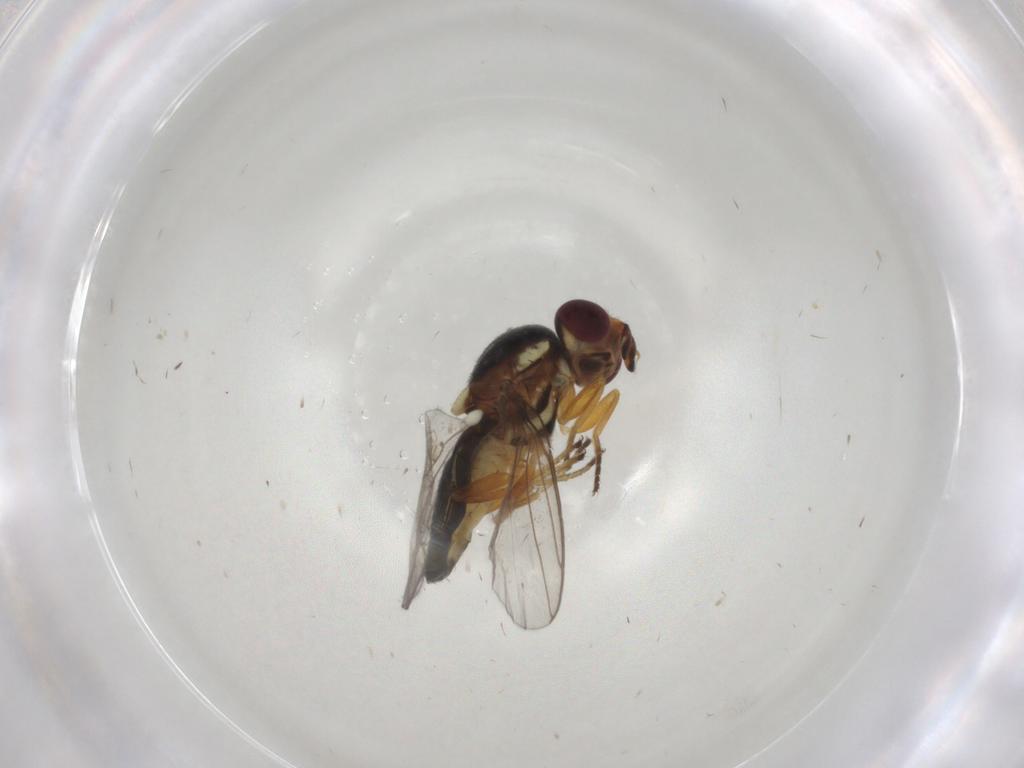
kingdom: Animalia
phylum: Arthropoda
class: Insecta
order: Diptera
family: Chloropidae
